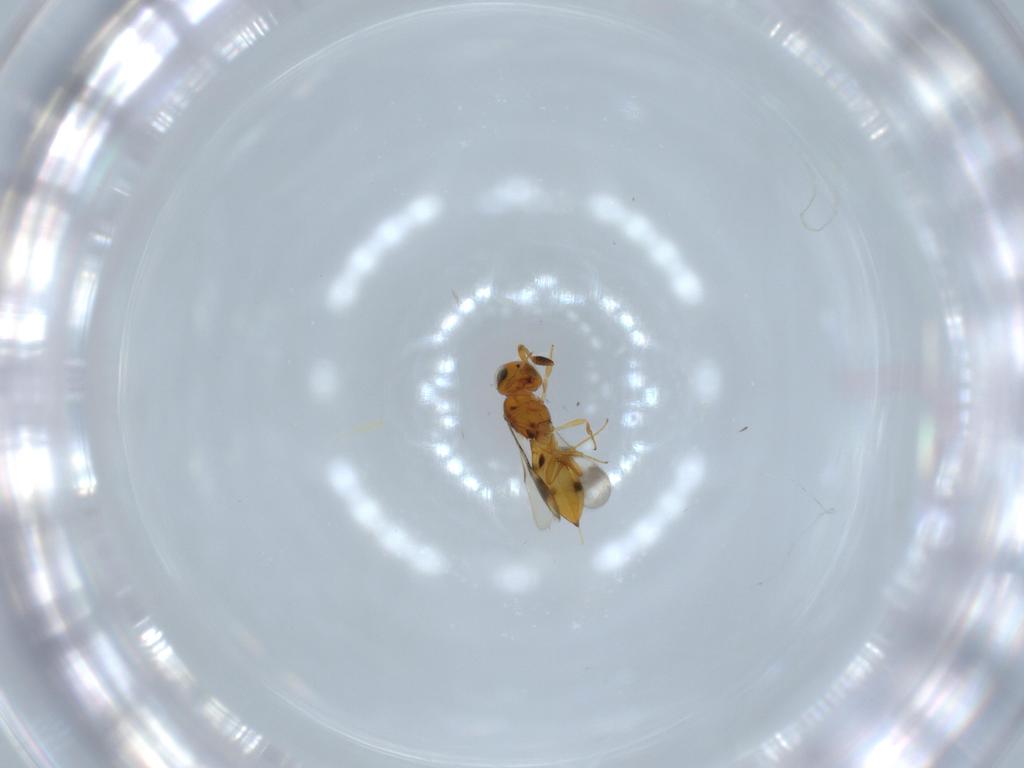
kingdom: Animalia
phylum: Arthropoda
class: Insecta
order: Hymenoptera
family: Scelionidae
